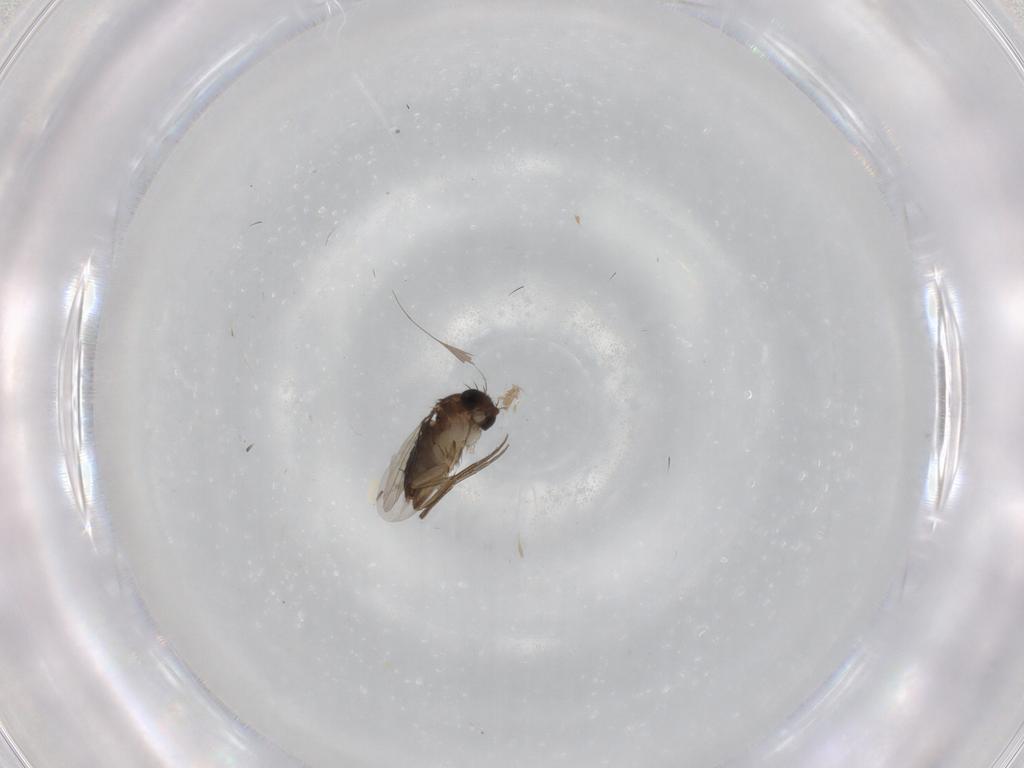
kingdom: Animalia
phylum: Arthropoda
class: Insecta
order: Diptera
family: Phoridae
